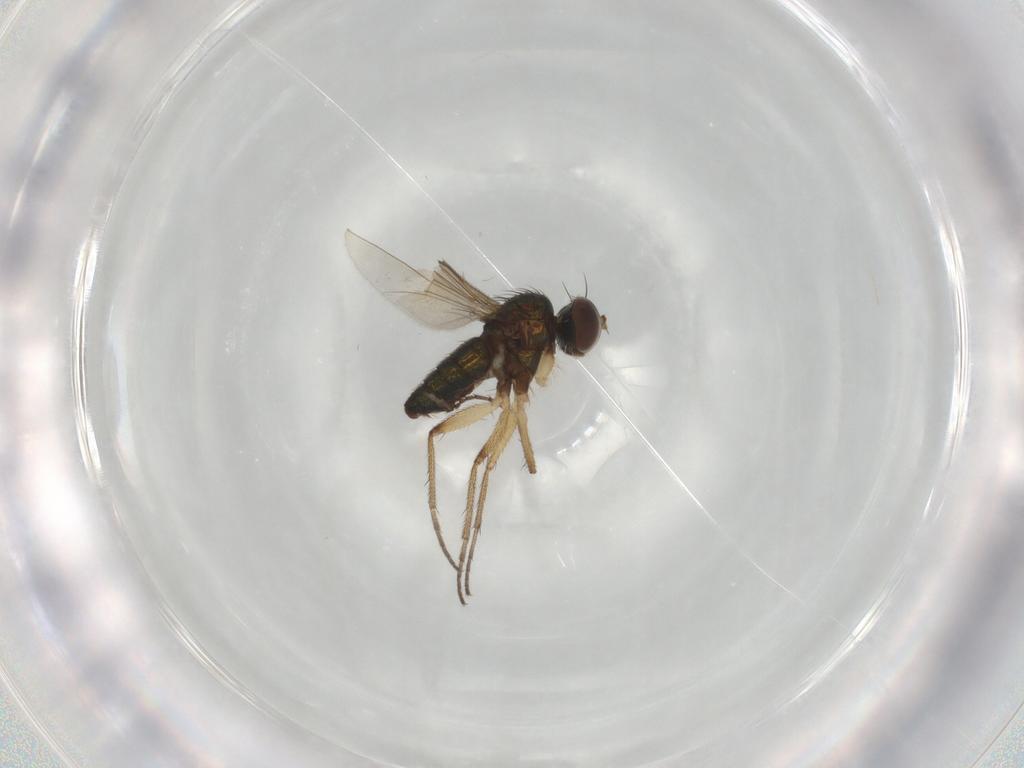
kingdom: Animalia
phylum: Arthropoda
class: Insecta
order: Diptera
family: Dolichopodidae
